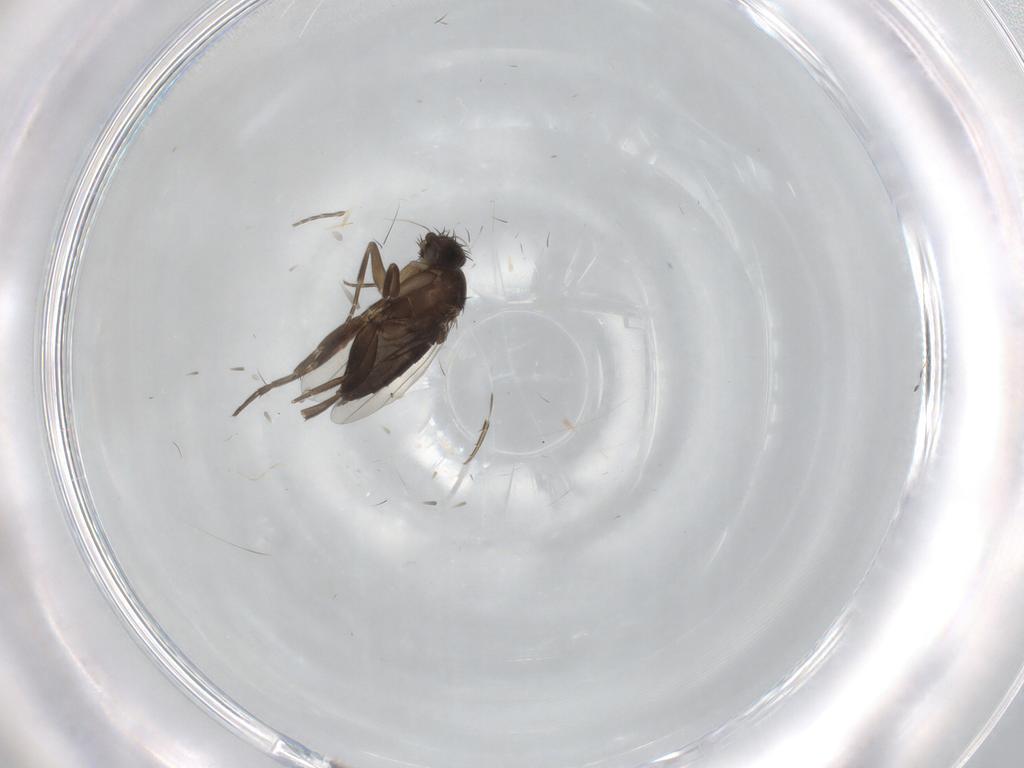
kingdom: Animalia
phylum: Arthropoda
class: Insecta
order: Diptera
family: Phoridae
